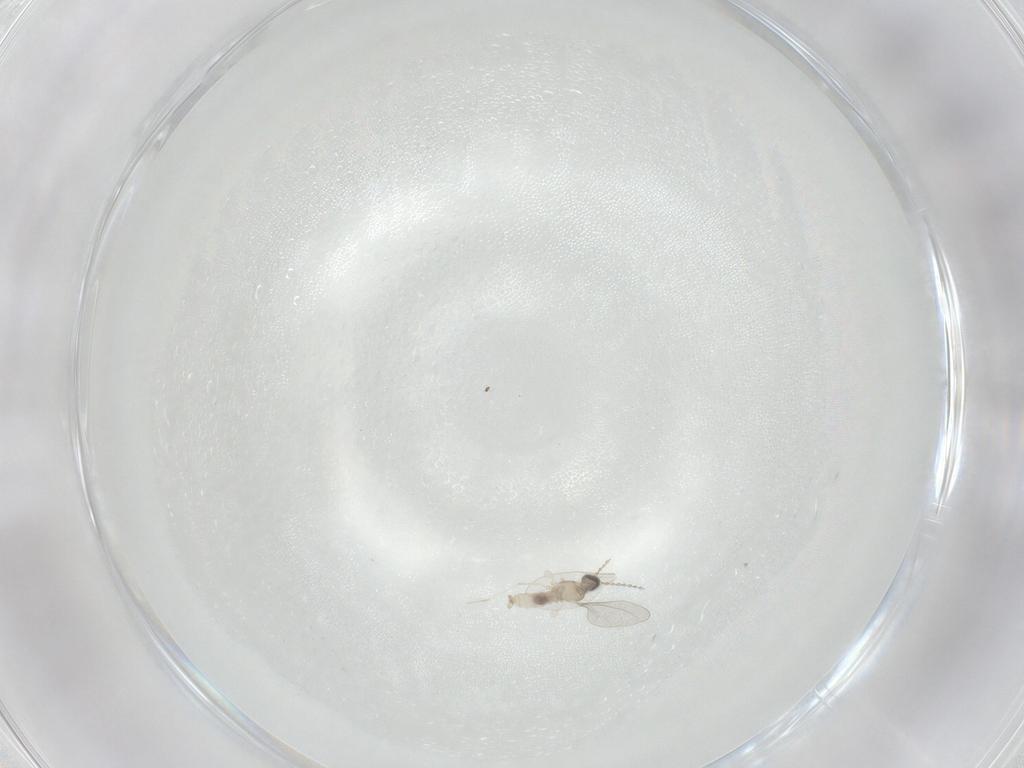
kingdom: Animalia
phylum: Arthropoda
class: Insecta
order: Diptera
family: Cecidomyiidae
